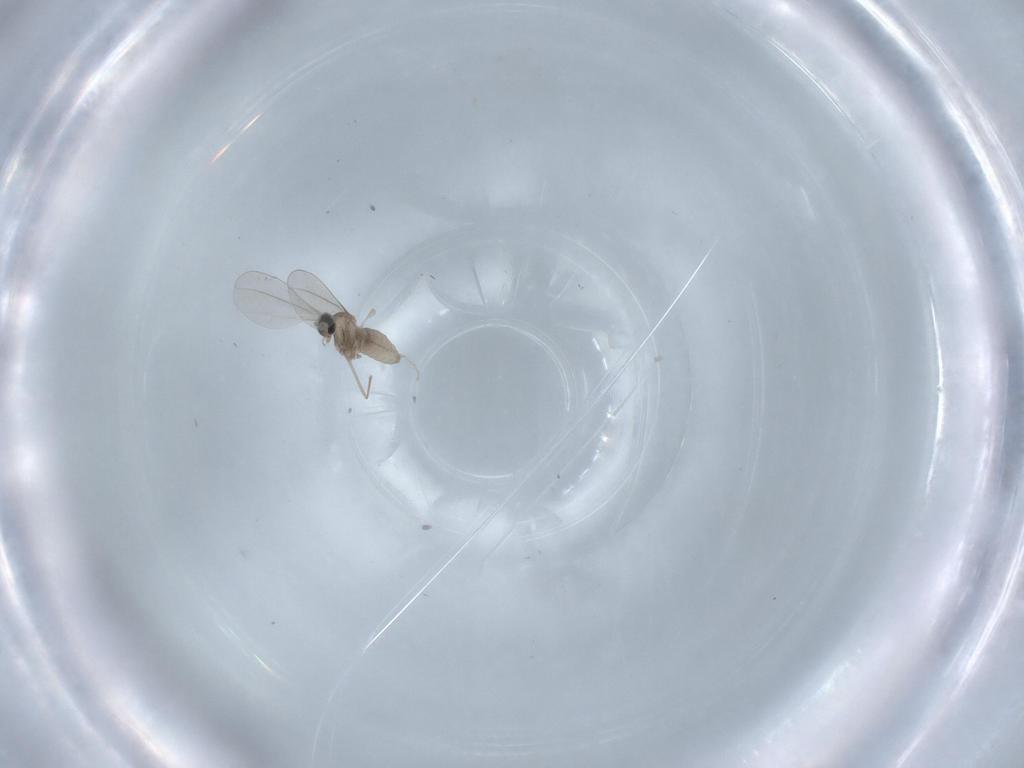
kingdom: Animalia
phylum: Arthropoda
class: Insecta
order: Diptera
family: Cecidomyiidae
